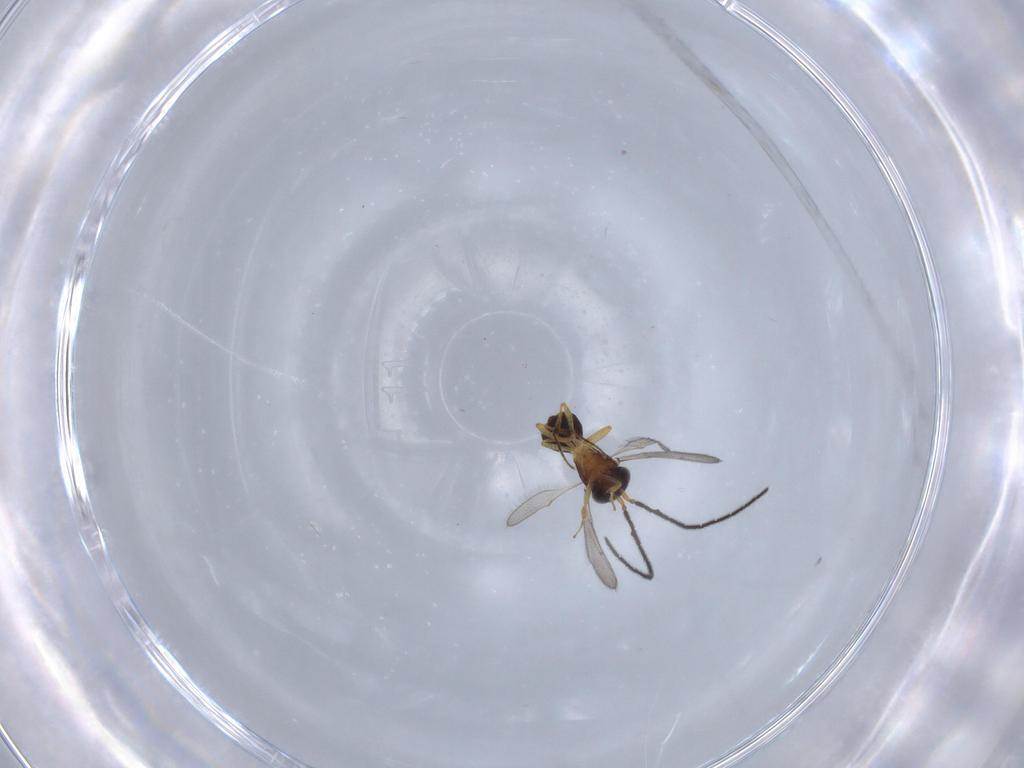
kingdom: Animalia
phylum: Arthropoda
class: Insecta
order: Hymenoptera
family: Scelionidae
